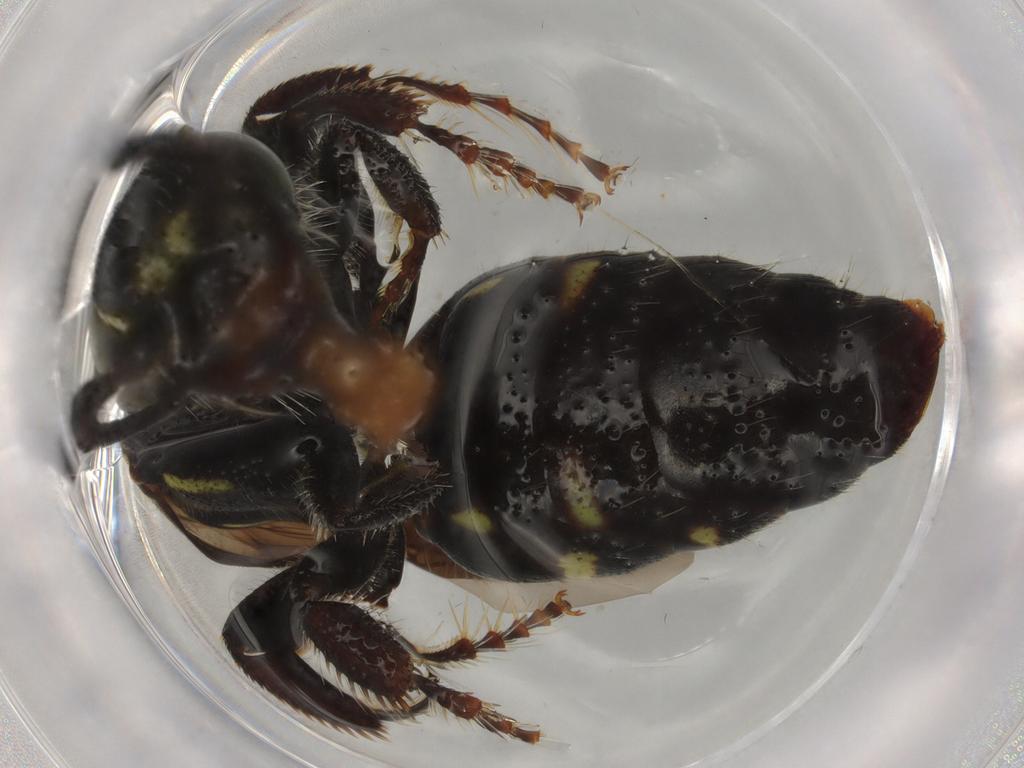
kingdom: Animalia
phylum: Arthropoda
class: Insecta
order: Hymenoptera
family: Thynnidae
